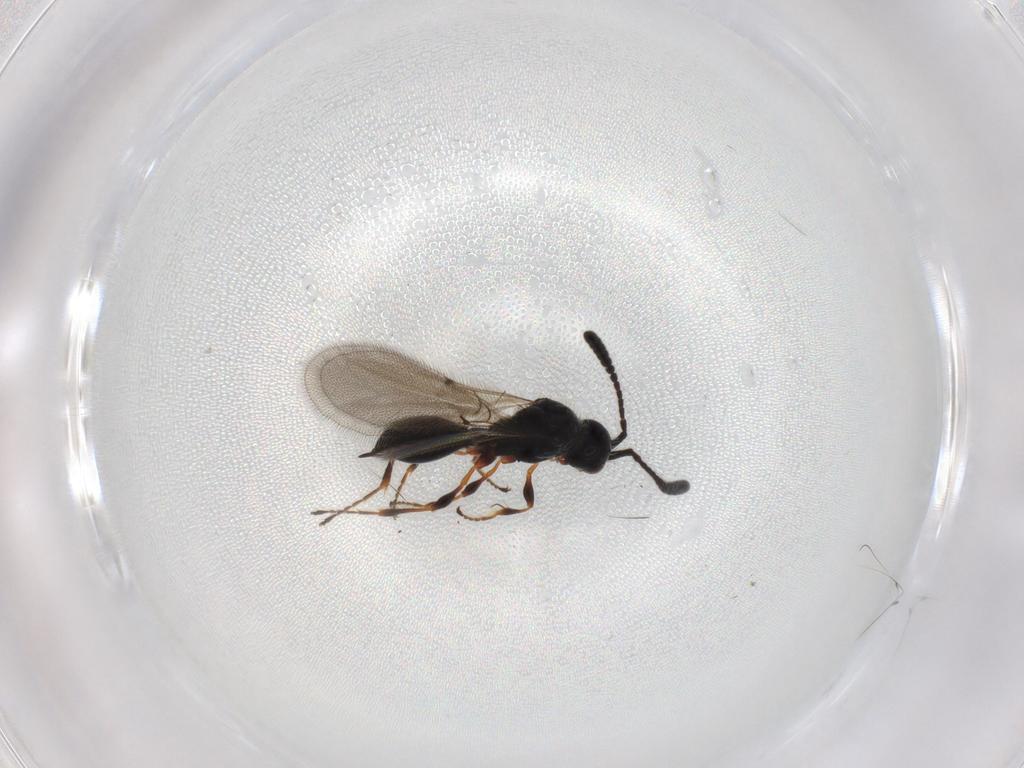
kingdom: Animalia
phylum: Arthropoda
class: Insecta
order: Hymenoptera
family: Diapriidae
